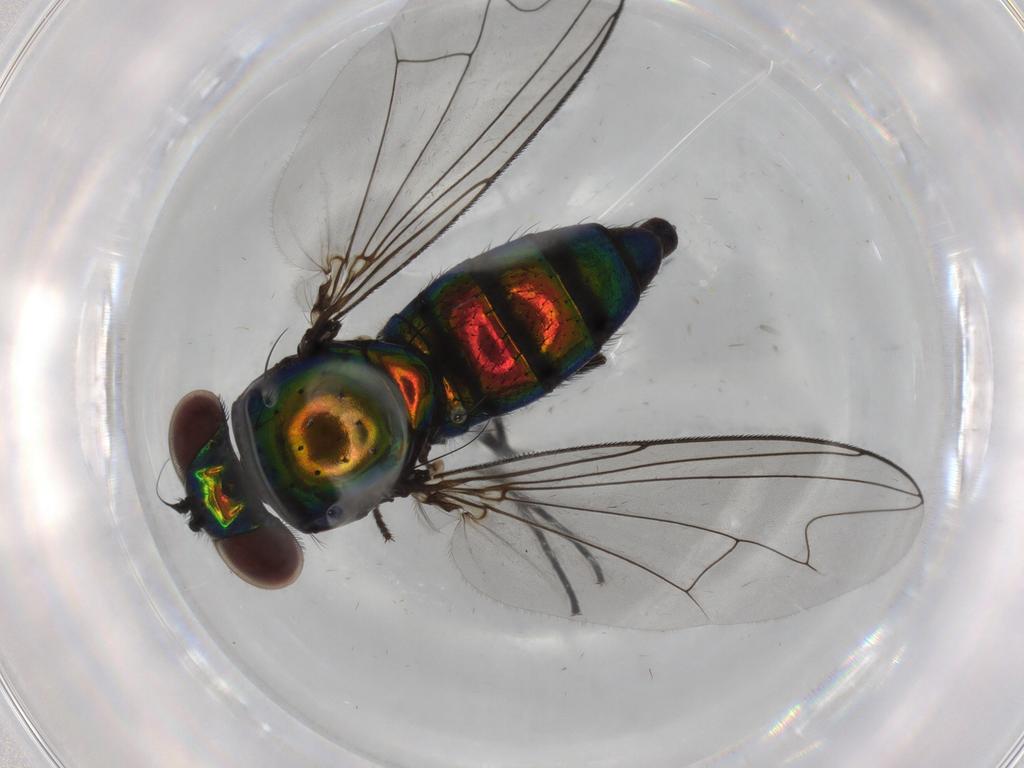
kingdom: Animalia
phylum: Arthropoda
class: Insecta
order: Diptera
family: Dolichopodidae
